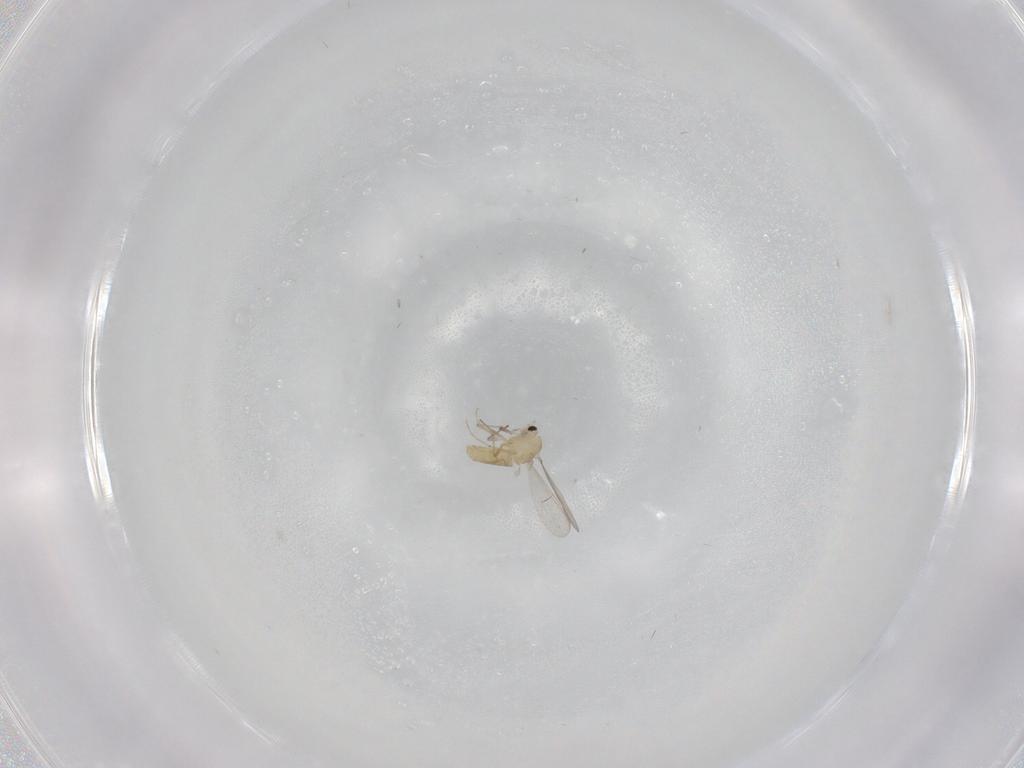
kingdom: Animalia
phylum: Arthropoda
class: Insecta
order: Diptera
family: Chironomidae
